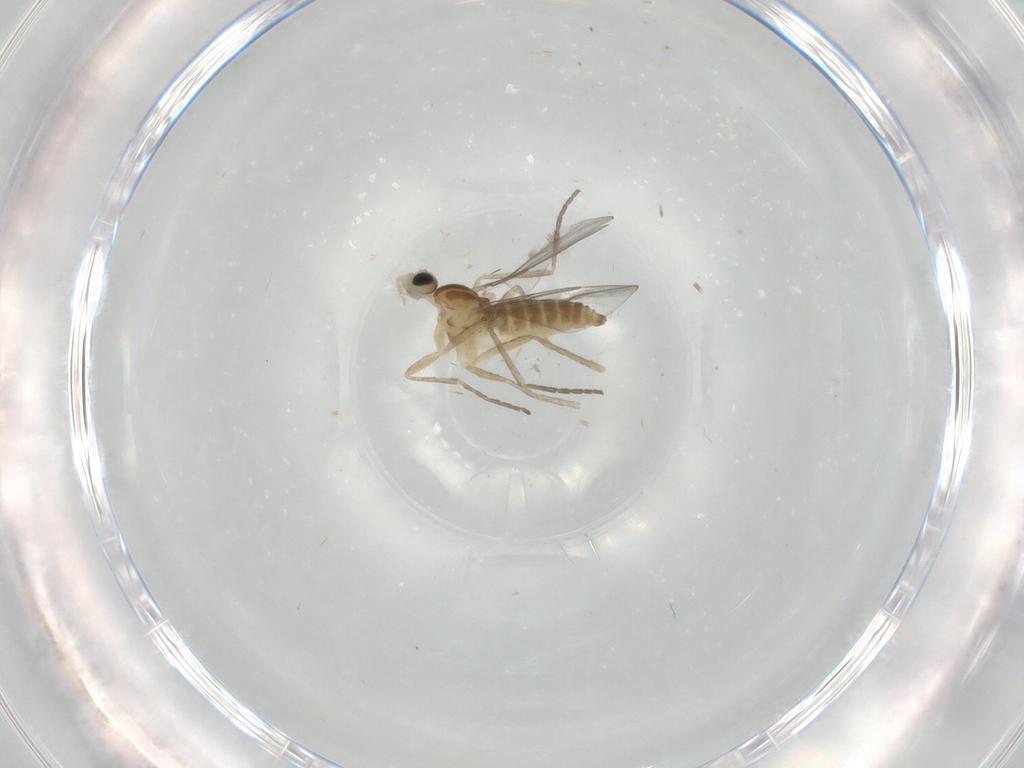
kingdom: Animalia
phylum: Arthropoda
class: Insecta
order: Diptera
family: Cecidomyiidae
